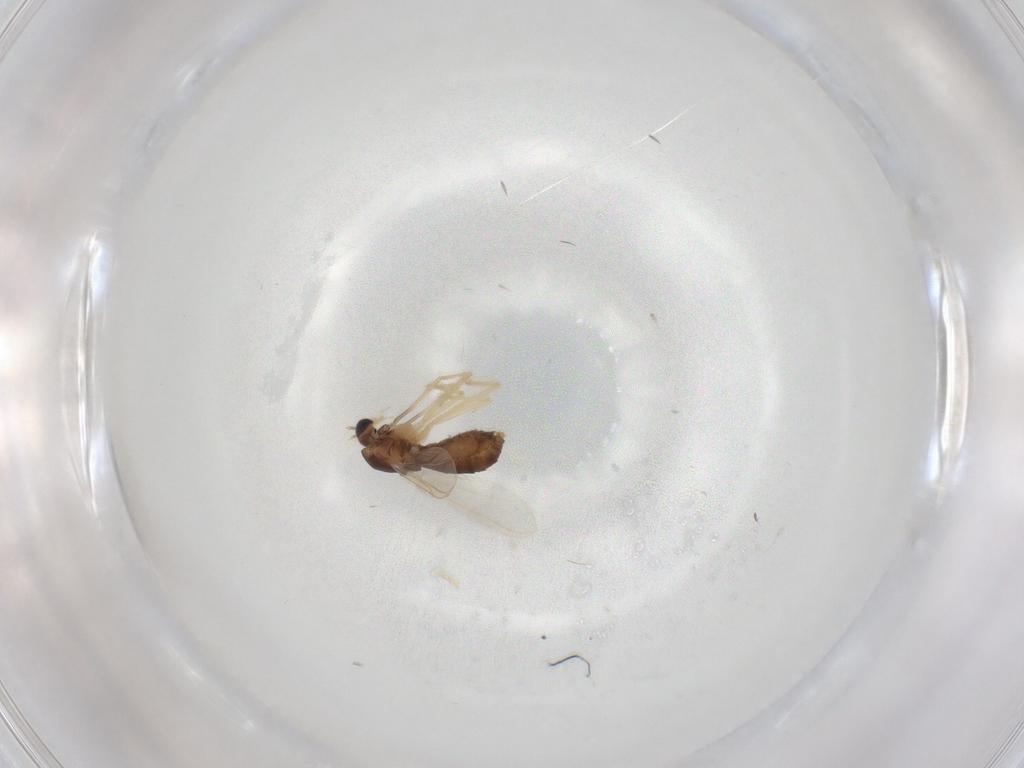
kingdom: Animalia
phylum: Arthropoda
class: Insecta
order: Diptera
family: Chironomidae
